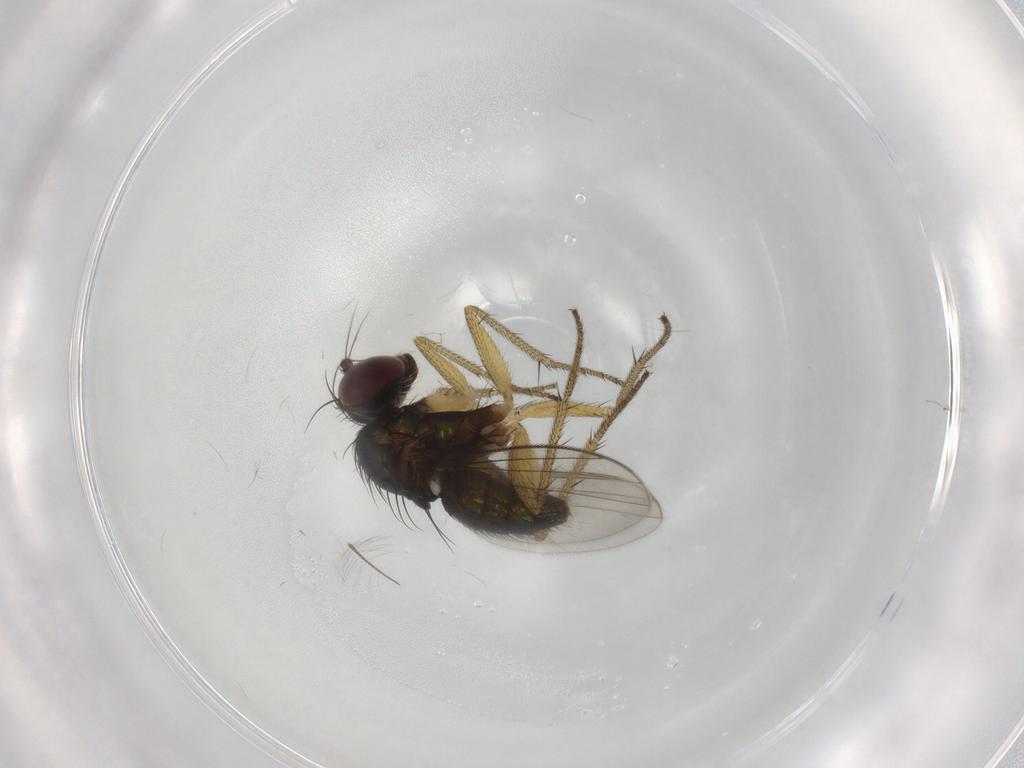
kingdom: Animalia
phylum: Arthropoda
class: Insecta
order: Diptera
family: Dolichopodidae
